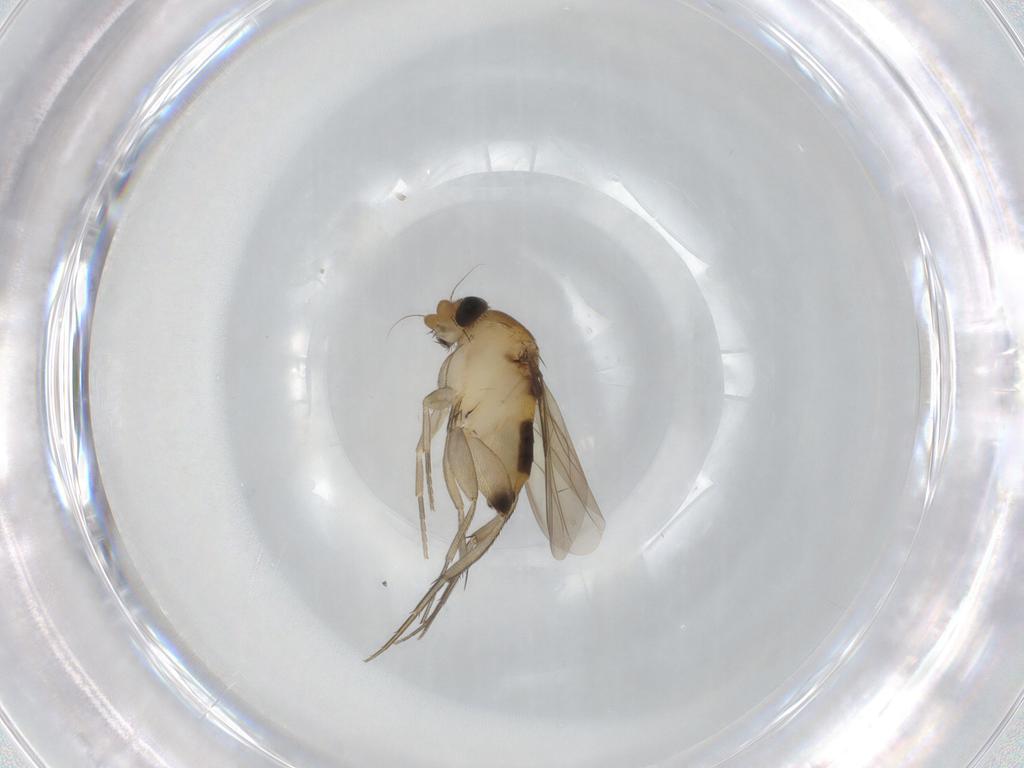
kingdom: Animalia
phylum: Arthropoda
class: Insecta
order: Diptera
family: Phoridae
